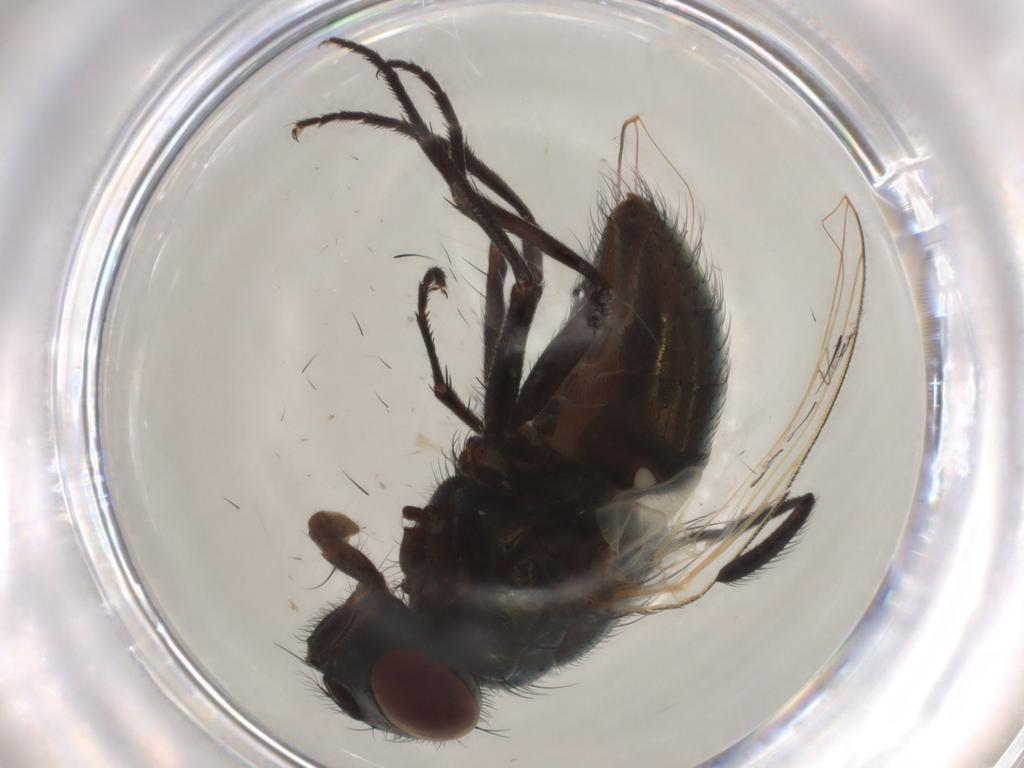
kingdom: Animalia
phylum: Arthropoda
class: Insecta
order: Diptera
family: Muscidae
